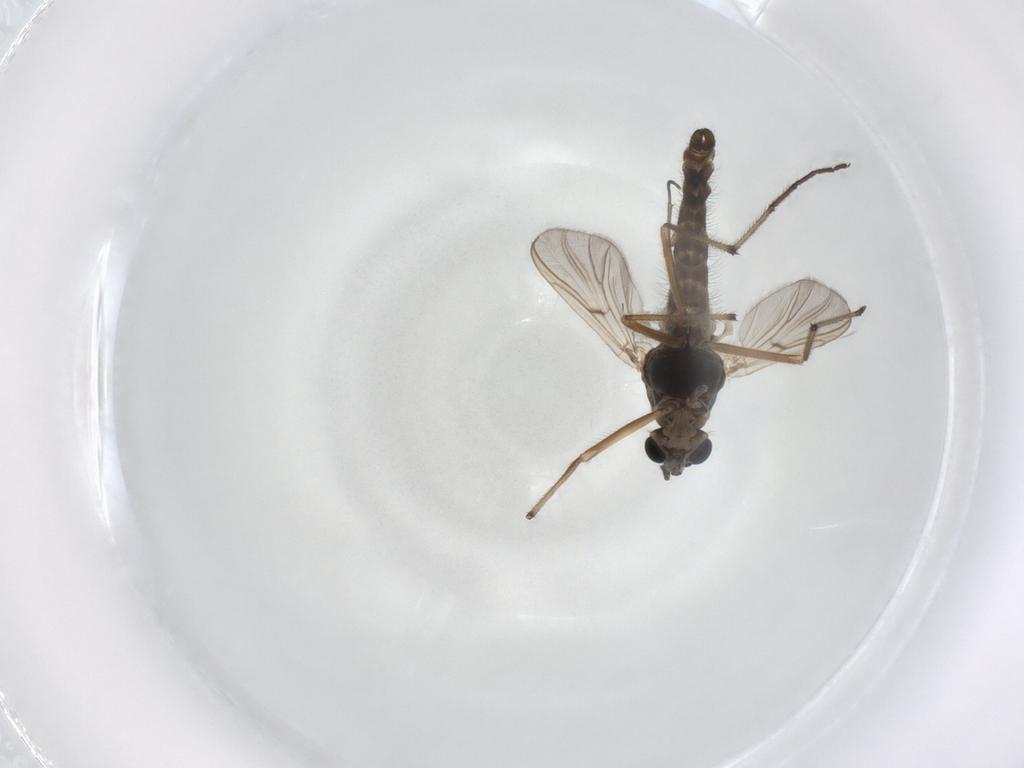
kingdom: Animalia
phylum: Arthropoda
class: Insecta
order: Diptera
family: Chironomidae
